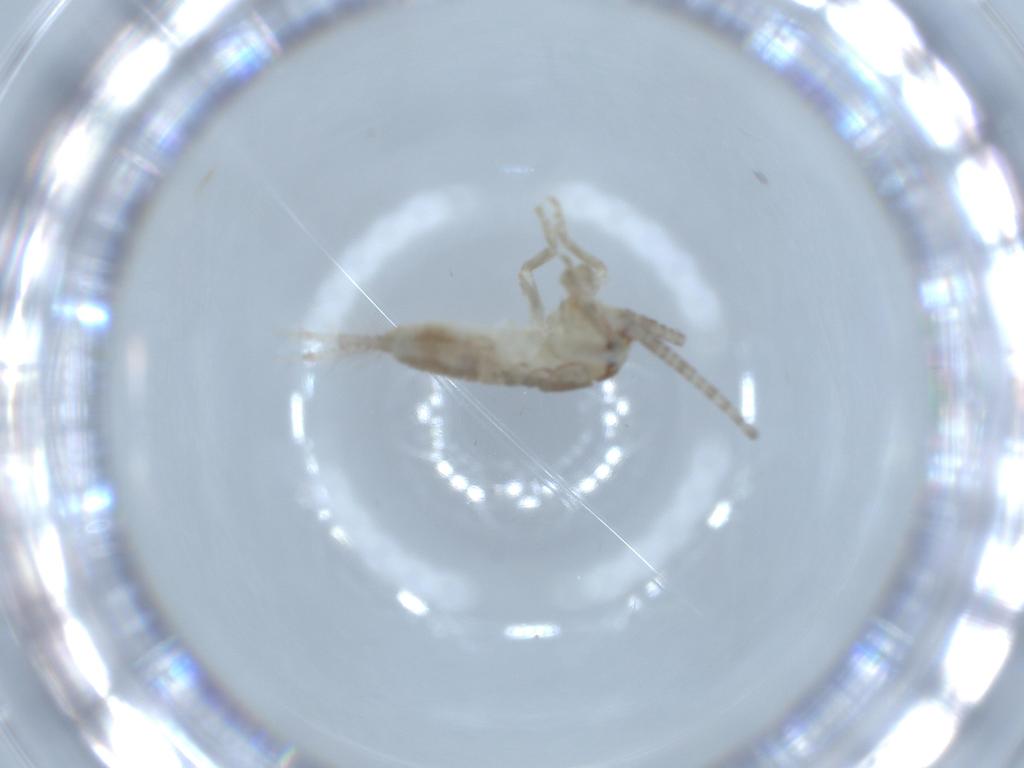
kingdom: Animalia
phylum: Arthropoda
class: Insecta
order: Orthoptera
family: Gryllidae
